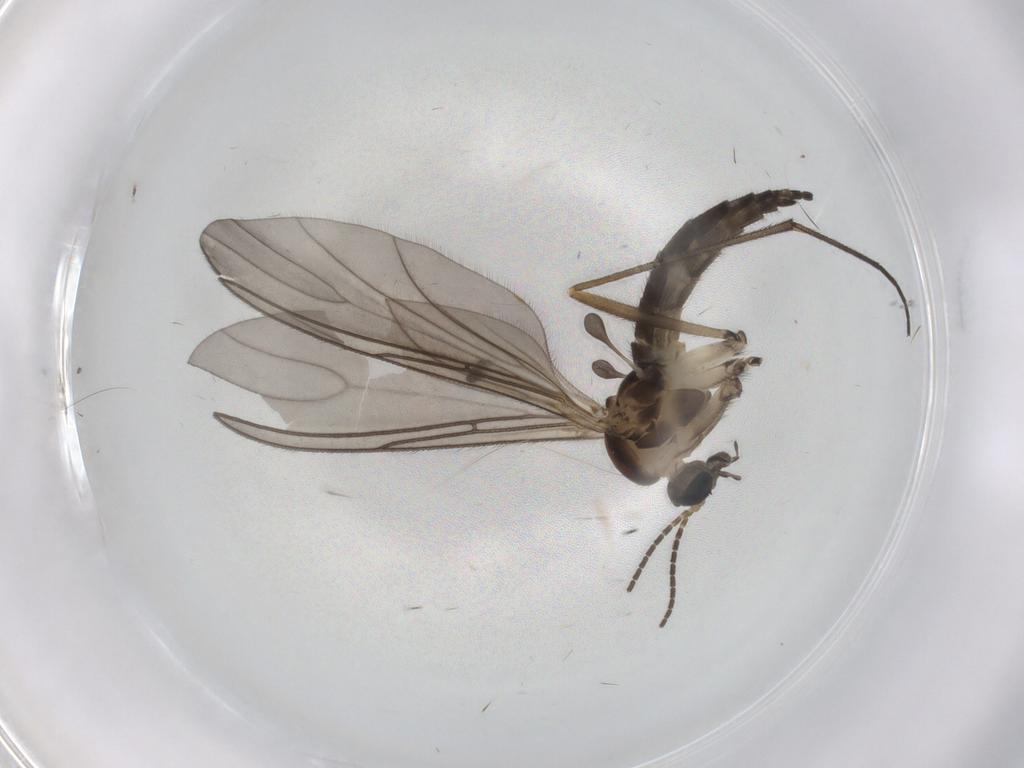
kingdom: Animalia
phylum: Arthropoda
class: Insecta
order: Diptera
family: Sciaridae
